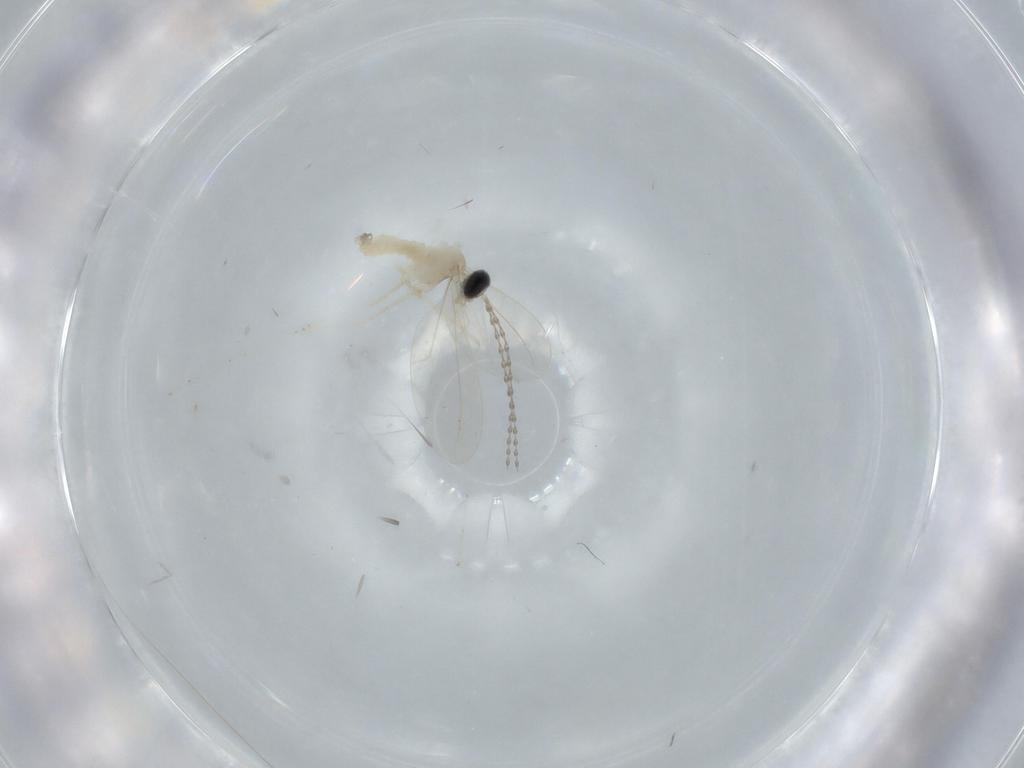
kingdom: Animalia
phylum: Arthropoda
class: Insecta
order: Diptera
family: Cecidomyiidae
